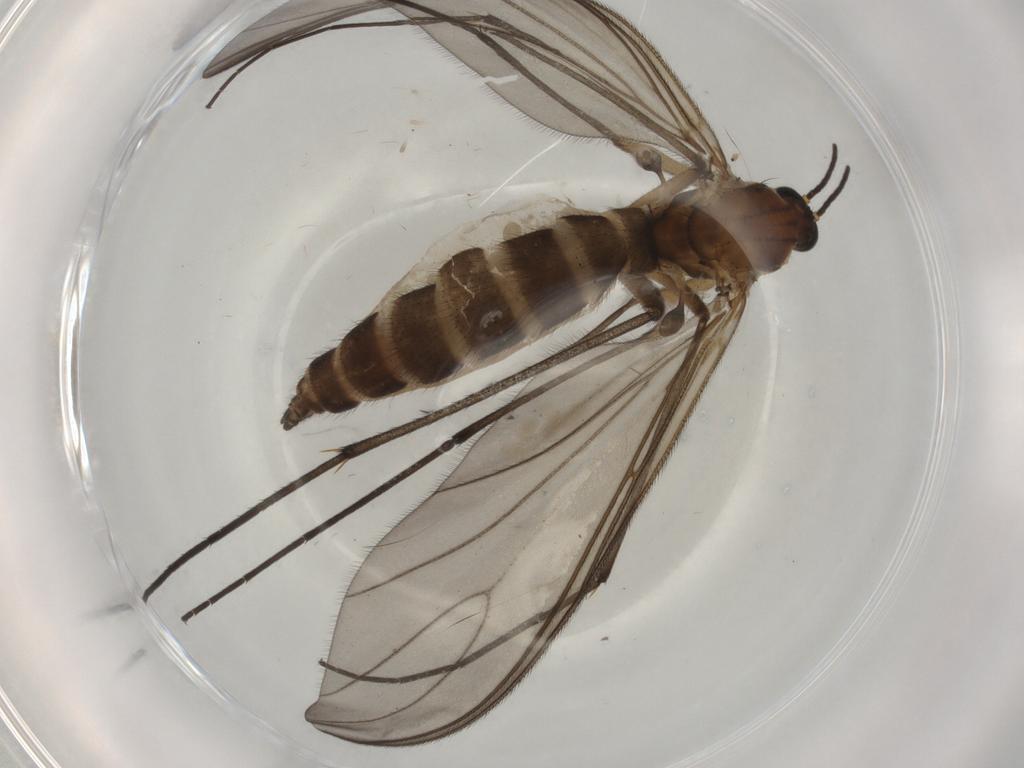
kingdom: Animalia
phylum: Arthropoda
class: Insecta
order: Diptera
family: Sciaridae
